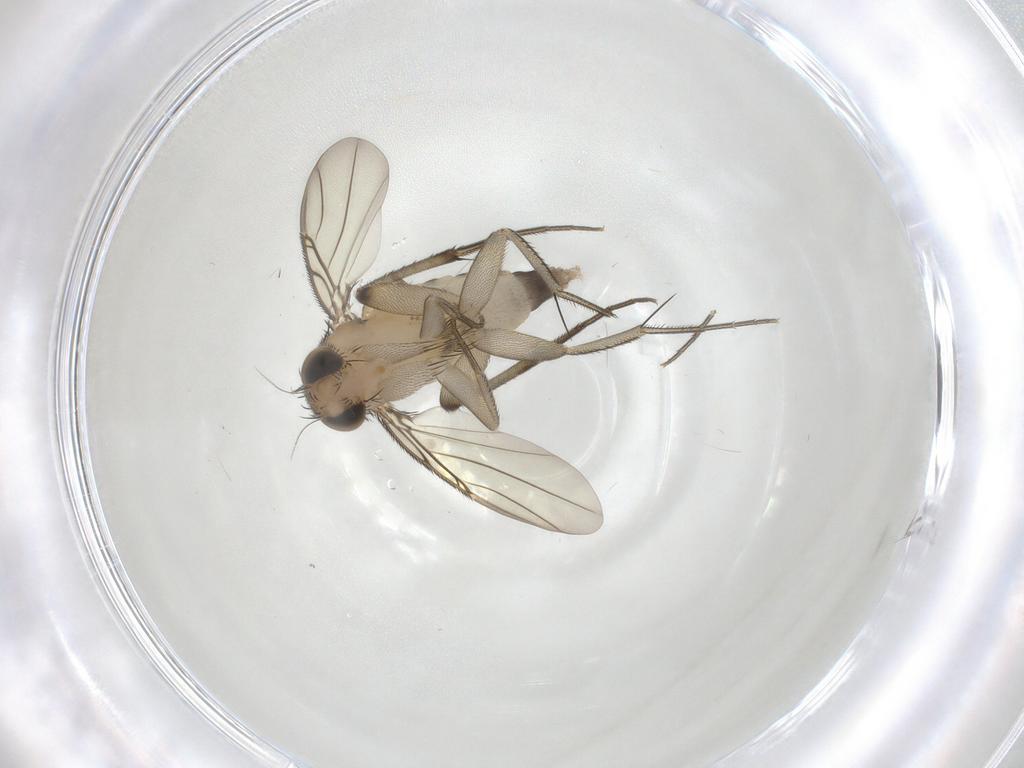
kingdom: Animalia
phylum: Arthropoda
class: Insecta
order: Diptera
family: Phoridae
